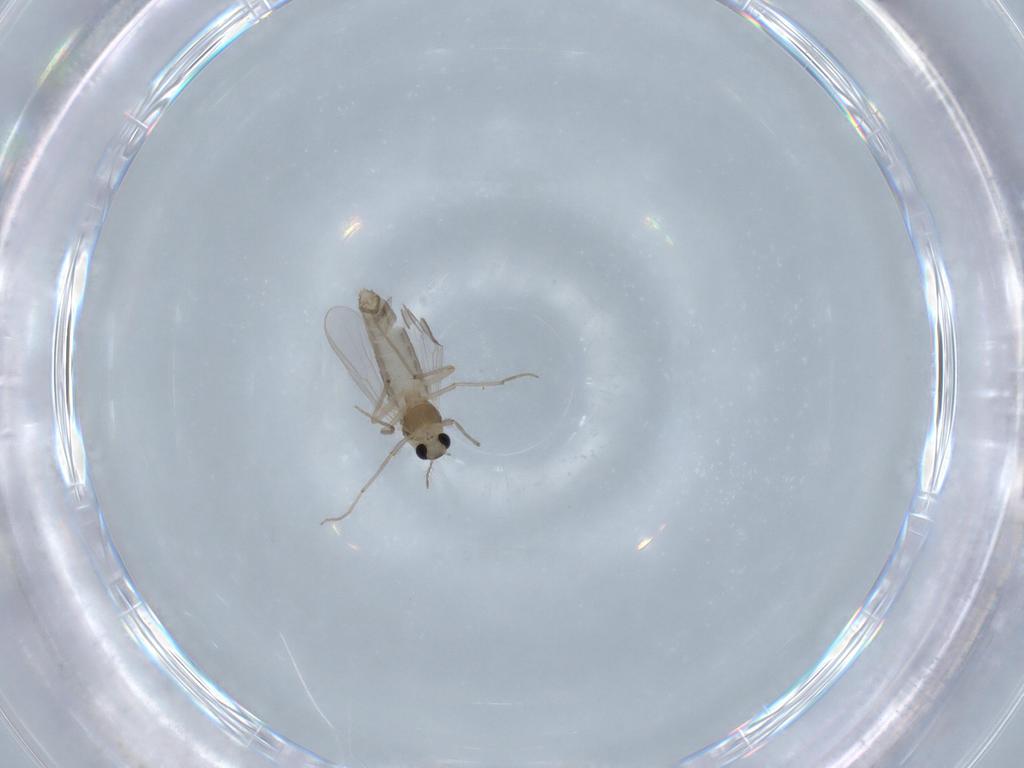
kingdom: Animalia
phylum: Arthropoda
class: Insecta
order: Diptera
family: Chironomidae
